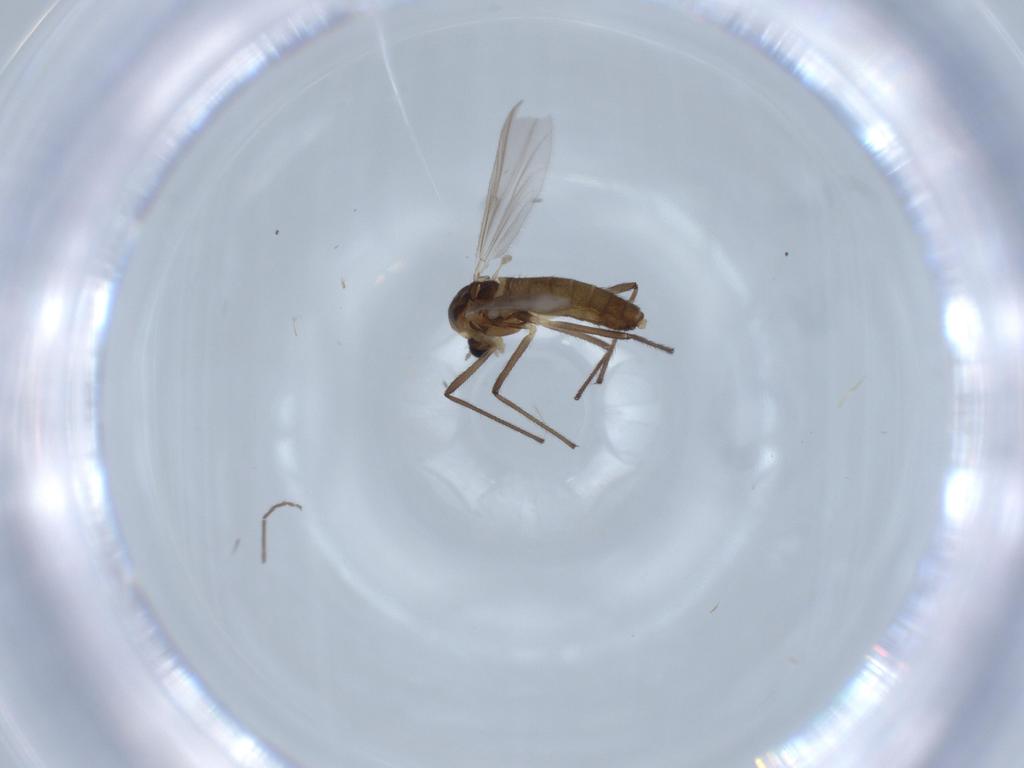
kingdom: Animalia
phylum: Arthropoda
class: Insecta
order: Diptera
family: Chironomidae
